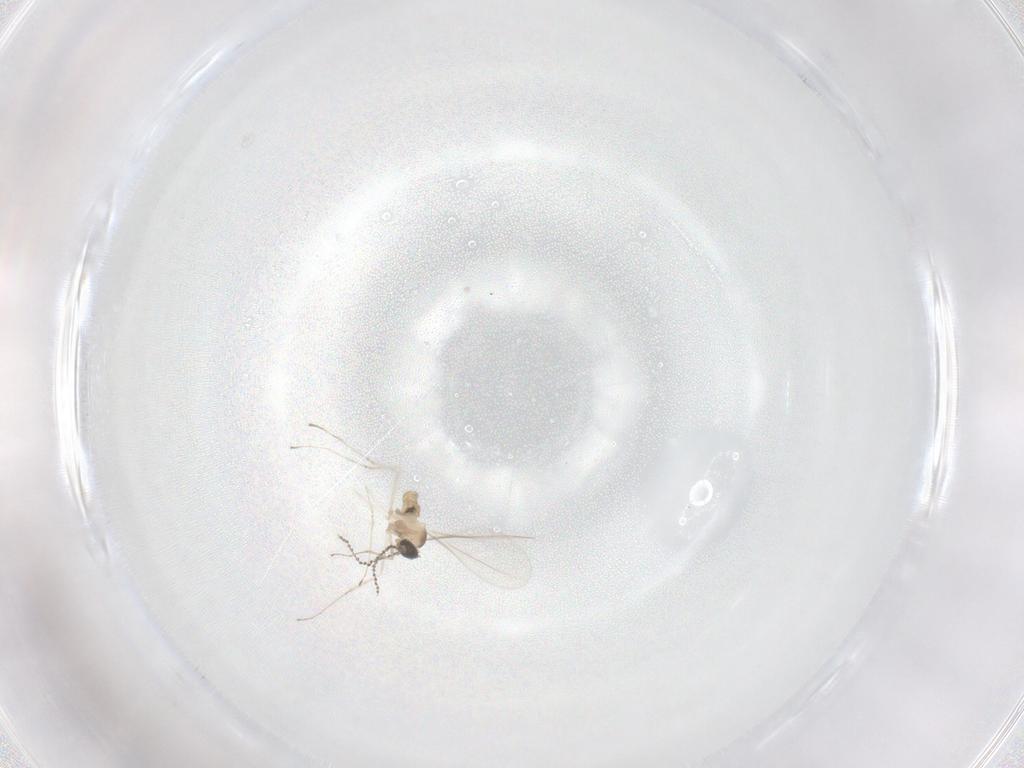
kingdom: Animalia
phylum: Arthropoda
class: Insecta
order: Diptera
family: Cecidomyiidae
